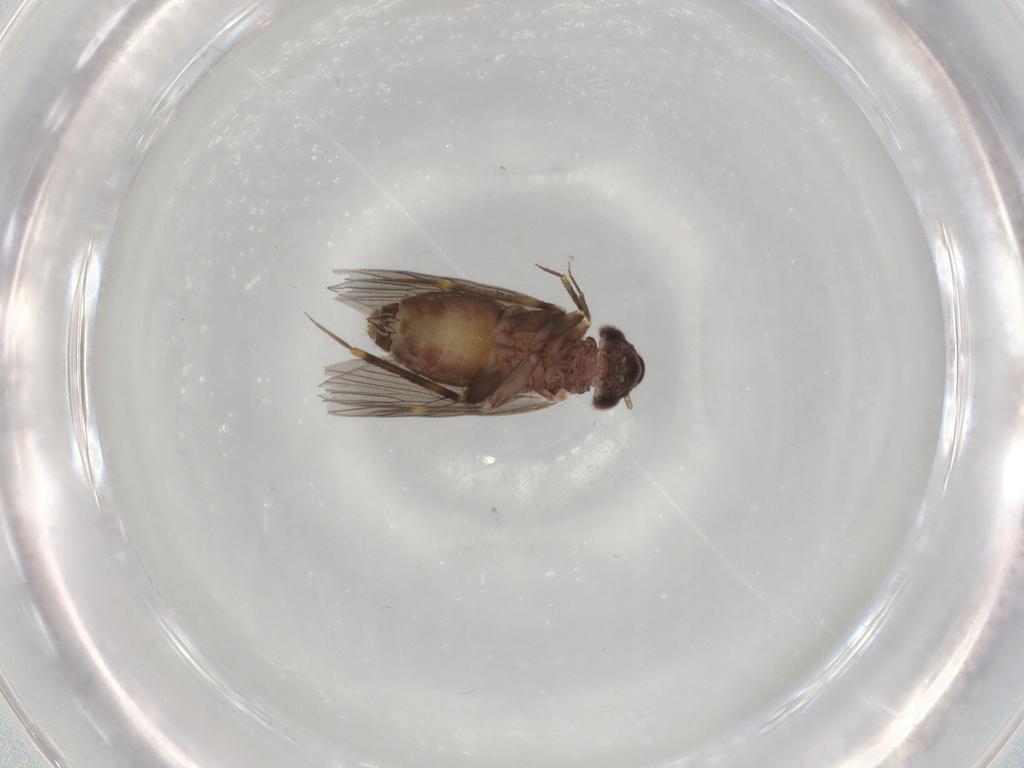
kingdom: Animalia
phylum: Arthropoda
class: Insecta
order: Psocodea
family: Lepidopsocidae
